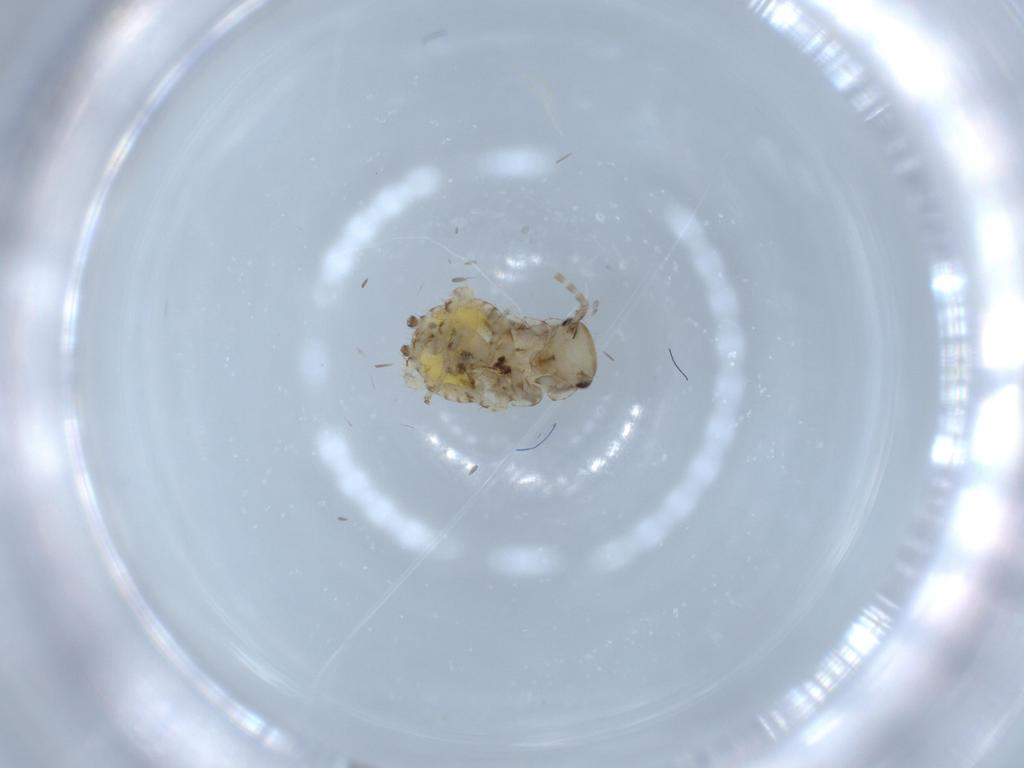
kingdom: Animalia
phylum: Arthropoda
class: Insecta
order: Blattodea
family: Ectobiidae
